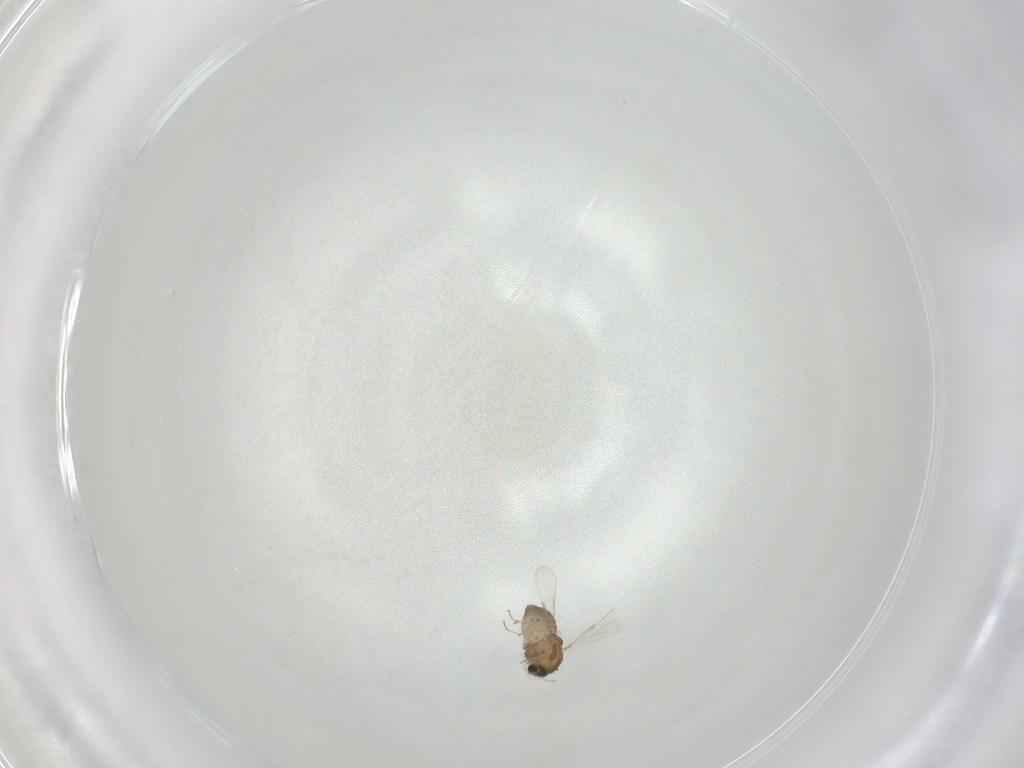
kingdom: Animalia
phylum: Arthropoda
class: Insecta
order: Diptera
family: Chironomidae
